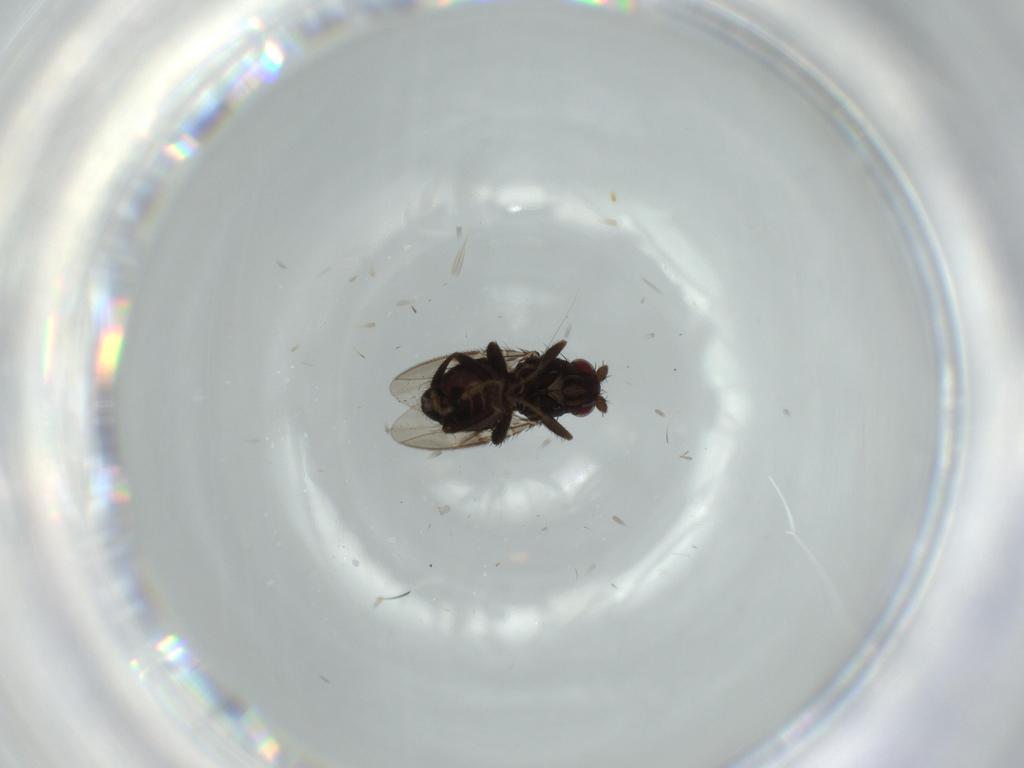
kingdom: Animalia
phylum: Arthropoda
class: Insecta
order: Diptera
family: Sphaeroceridae
